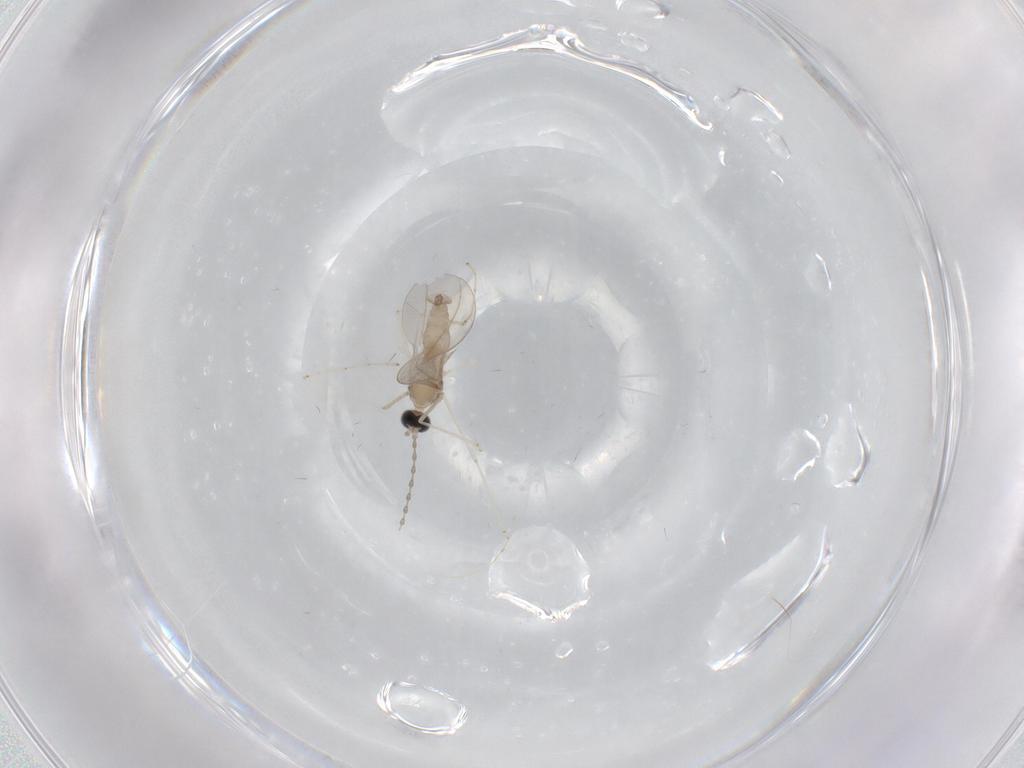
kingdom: Animalia
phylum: Arthropoda
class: Insecta
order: Diptera
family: Cecidomyiidae
